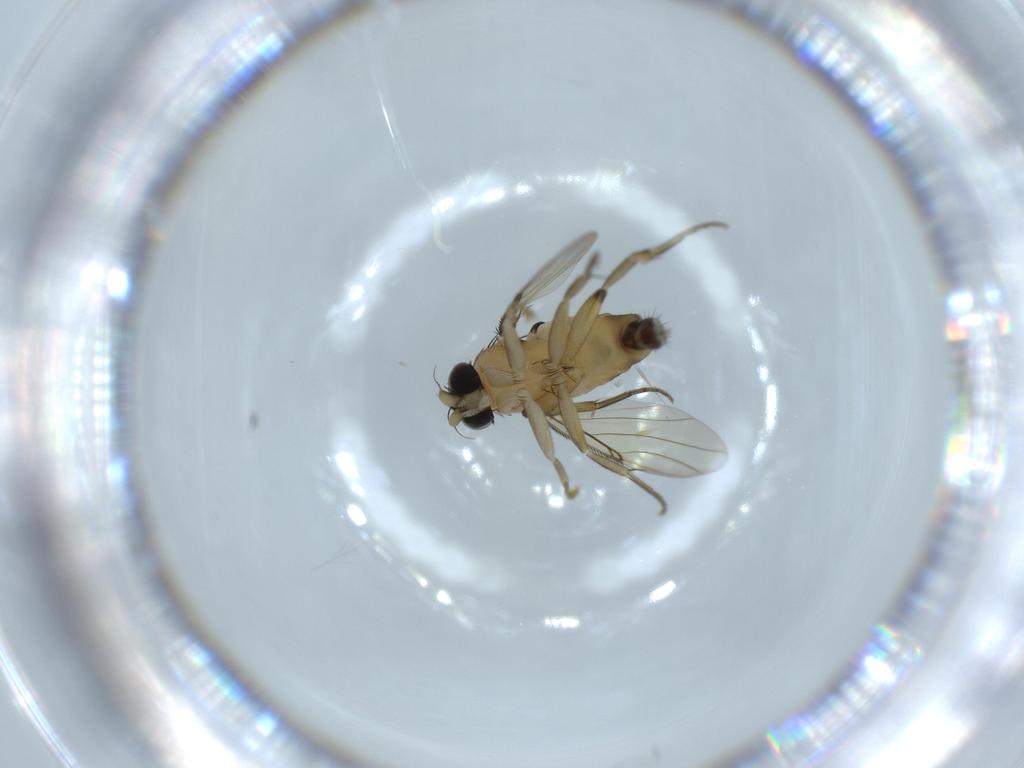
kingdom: Animalia
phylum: Arthropoda
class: Insecta
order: Diptera
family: Phoridae
